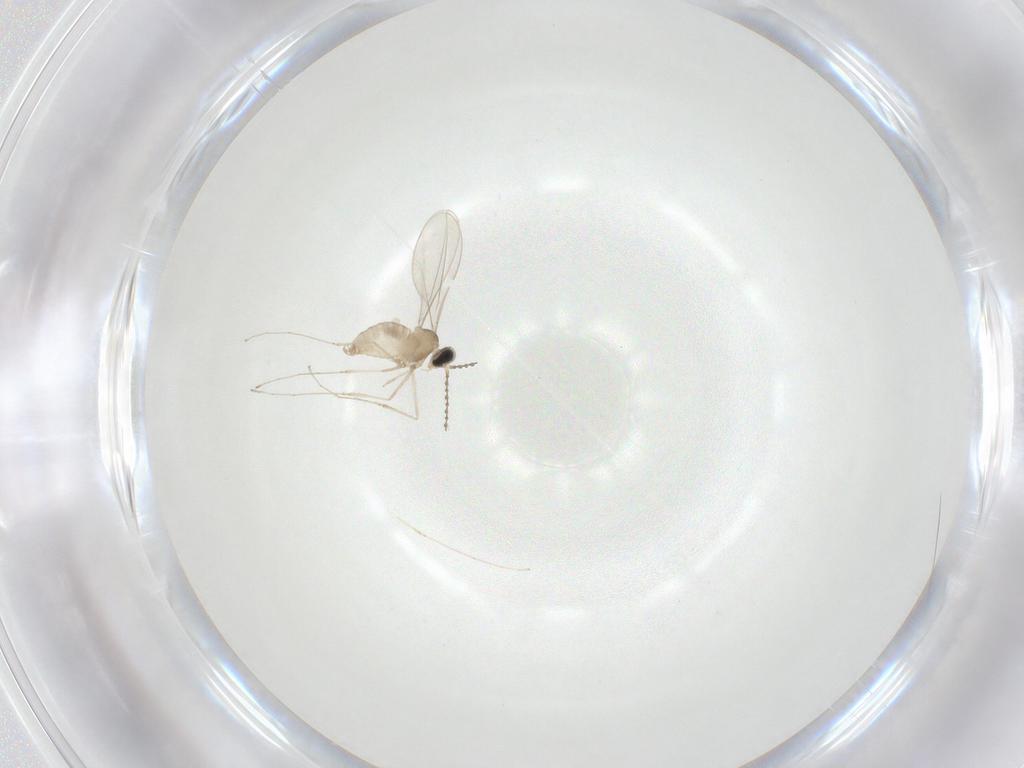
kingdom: Animalia
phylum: Arthropoda
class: Insecta
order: Diptera
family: Cecidomyiidae
